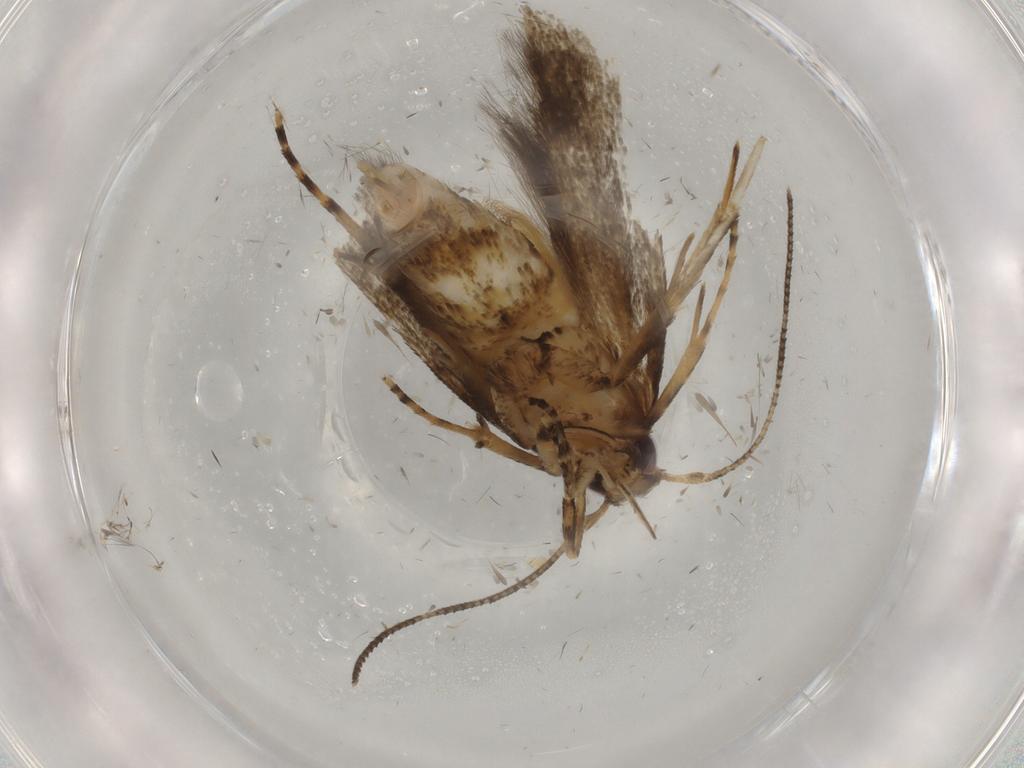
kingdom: Animalia
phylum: Arthropoda
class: Insecta
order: Lepidoptera
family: Cosmopterigidae
